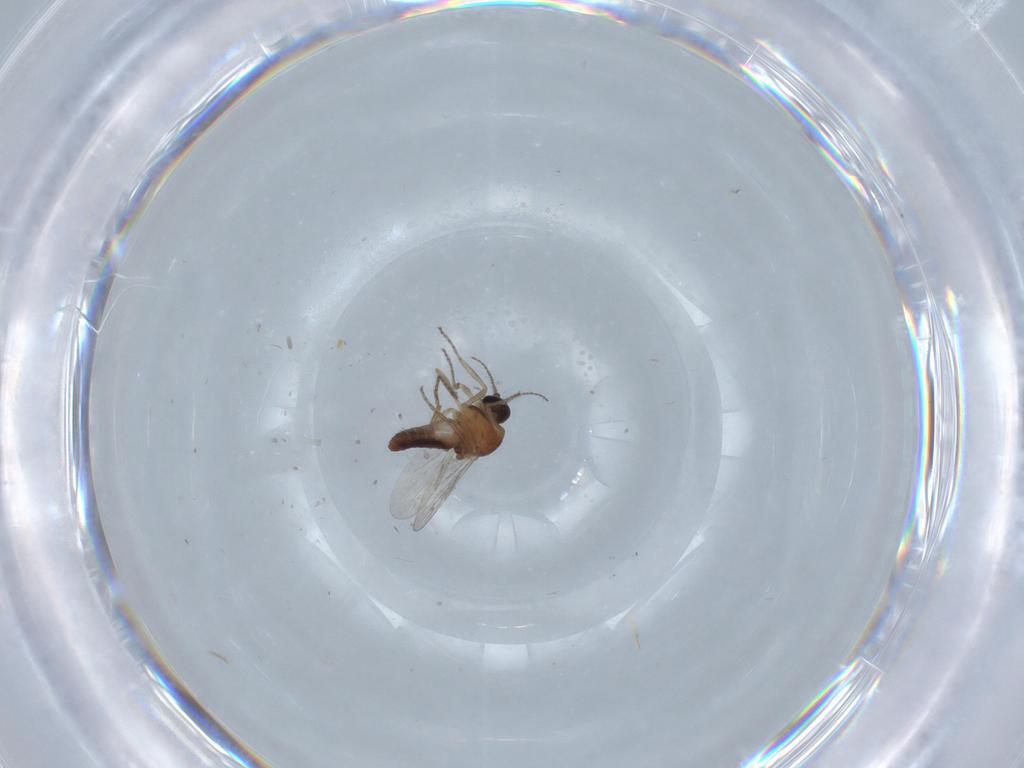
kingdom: Animalia
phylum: Arthropoda
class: Insecta
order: Diptera
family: Ceratopogonidae
